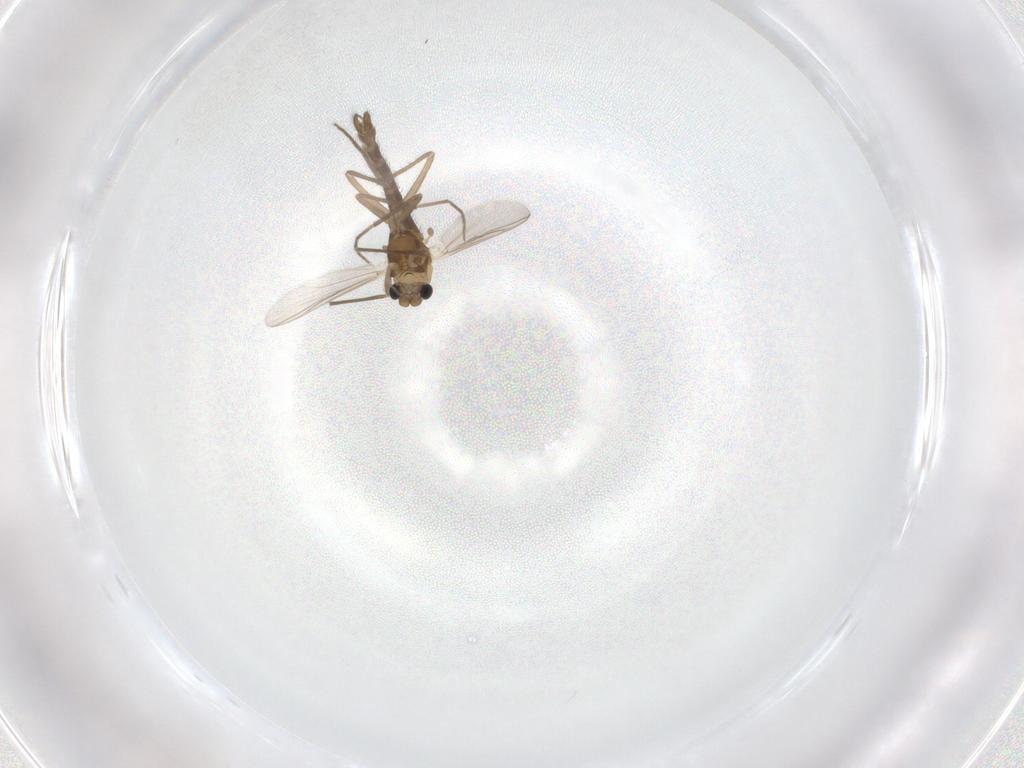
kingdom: Animalia
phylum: Arthropoda
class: Insecta
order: Diptera
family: Chironomidae
